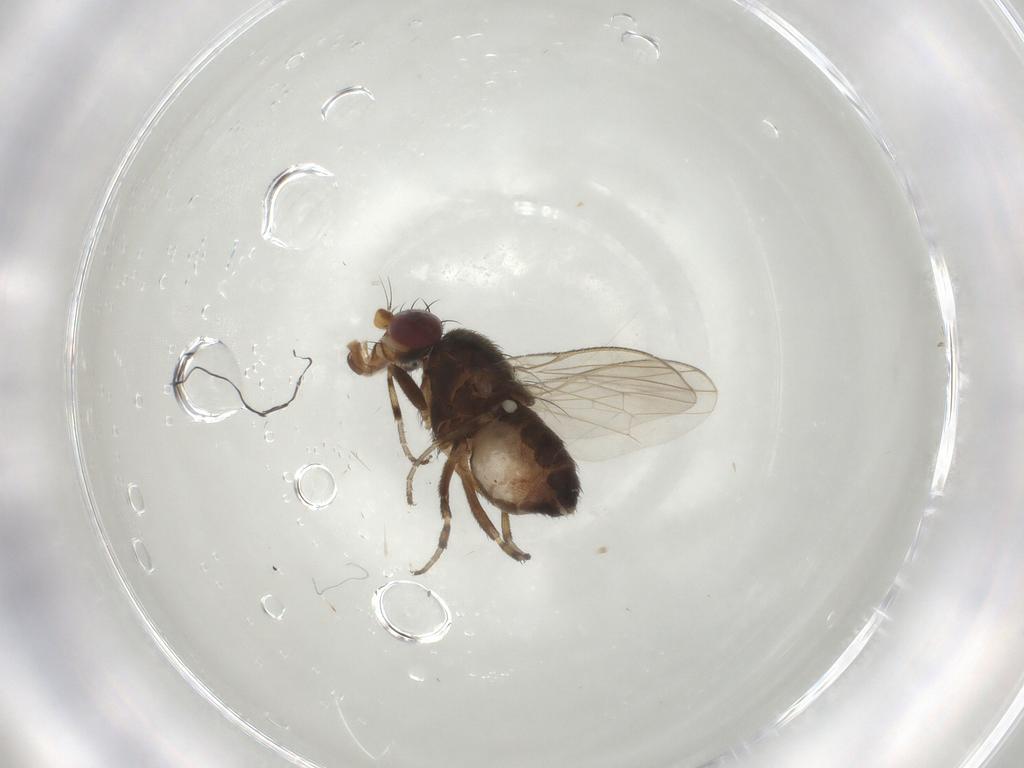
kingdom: Animalia
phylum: Arthropoda
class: Insecta
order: Diptera
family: Heleomyzidae
